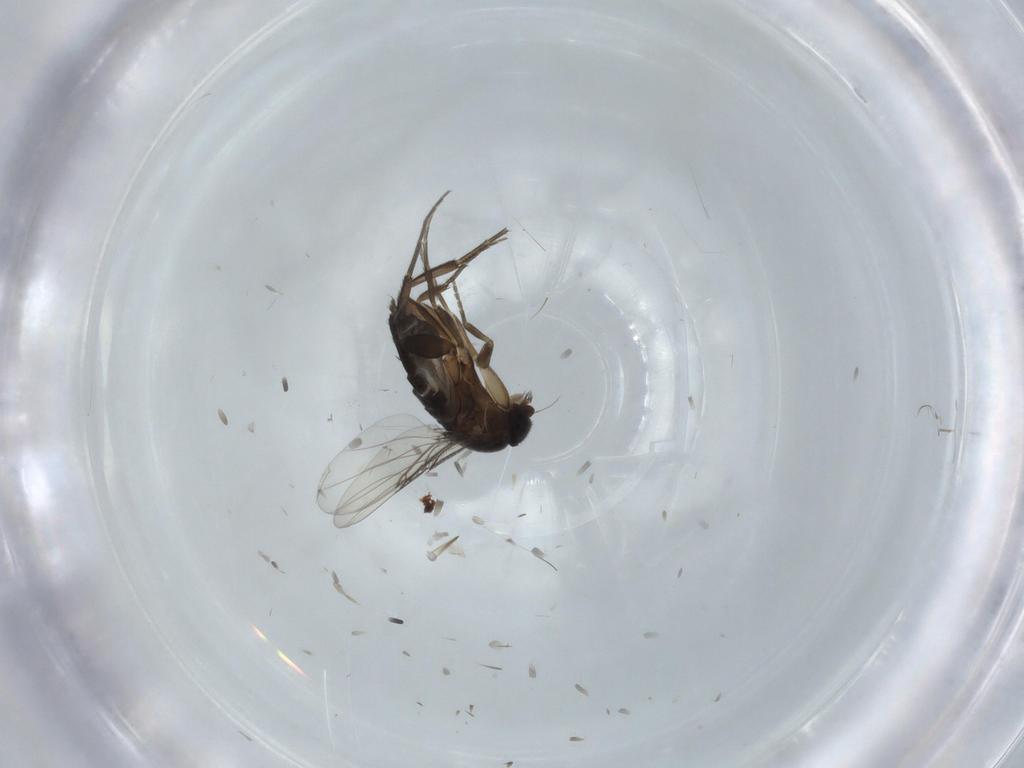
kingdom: Animalia
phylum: Arthropoda
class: Insecta
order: Diptera
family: Phoridae
